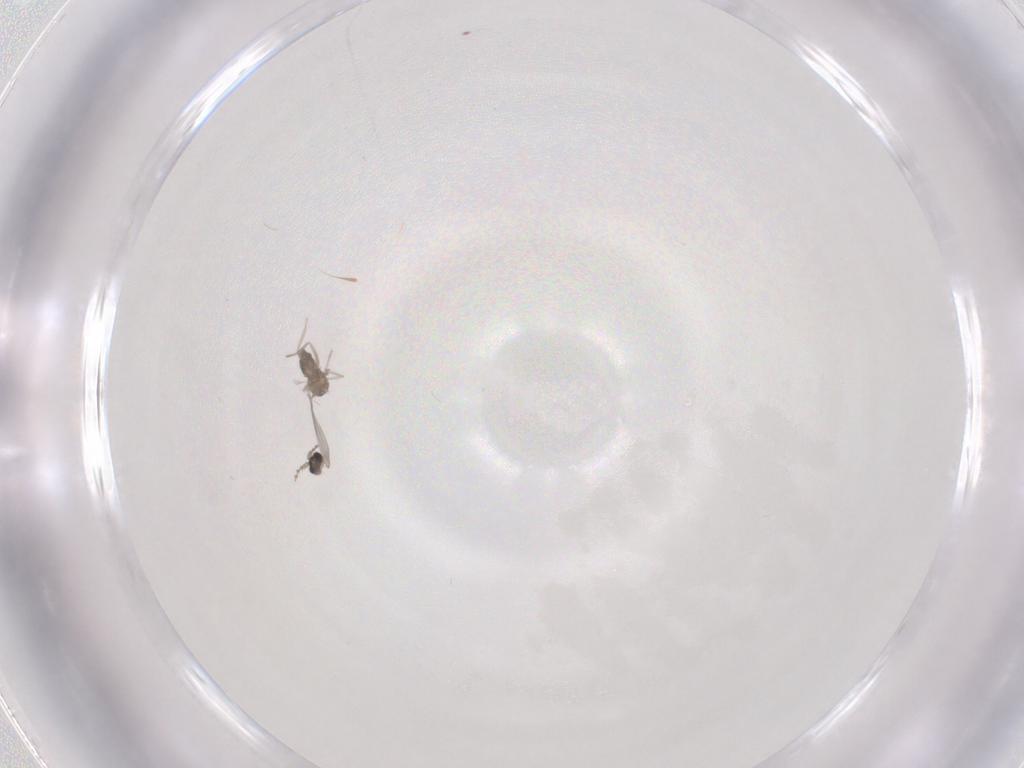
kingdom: Animalia
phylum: Arthropoda
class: Insecta
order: Diptera
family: Cecidomyiidae
